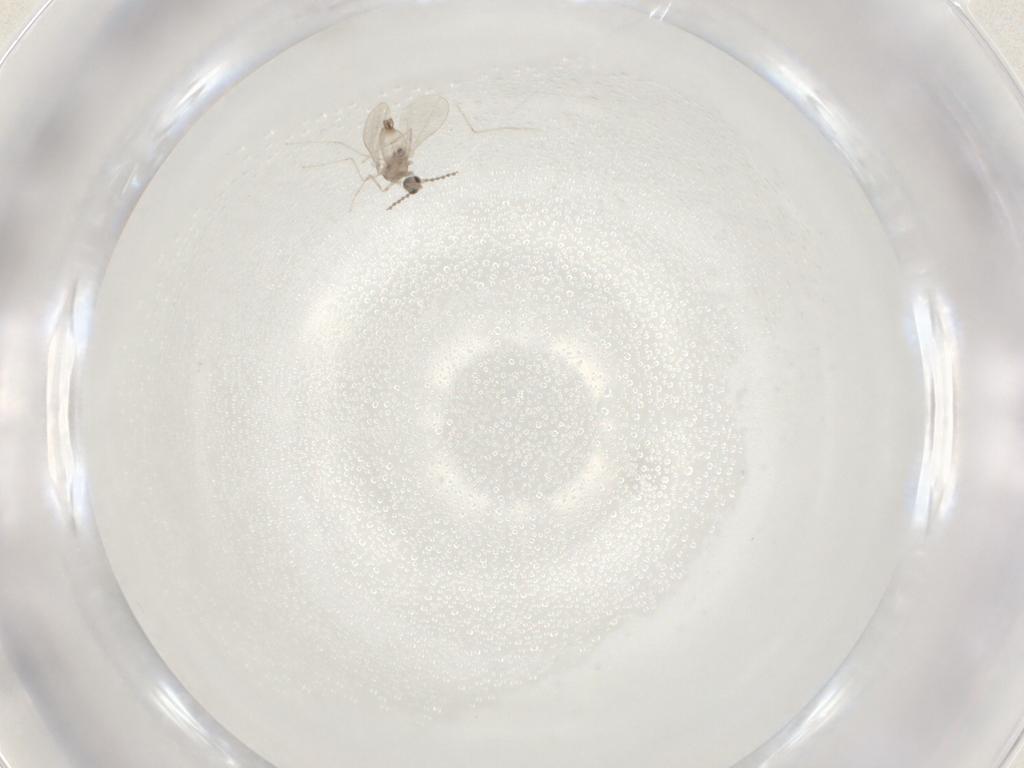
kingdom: Animalia
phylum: Arthropoda
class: Insecta
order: Diptera
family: Cecidomyiidae
